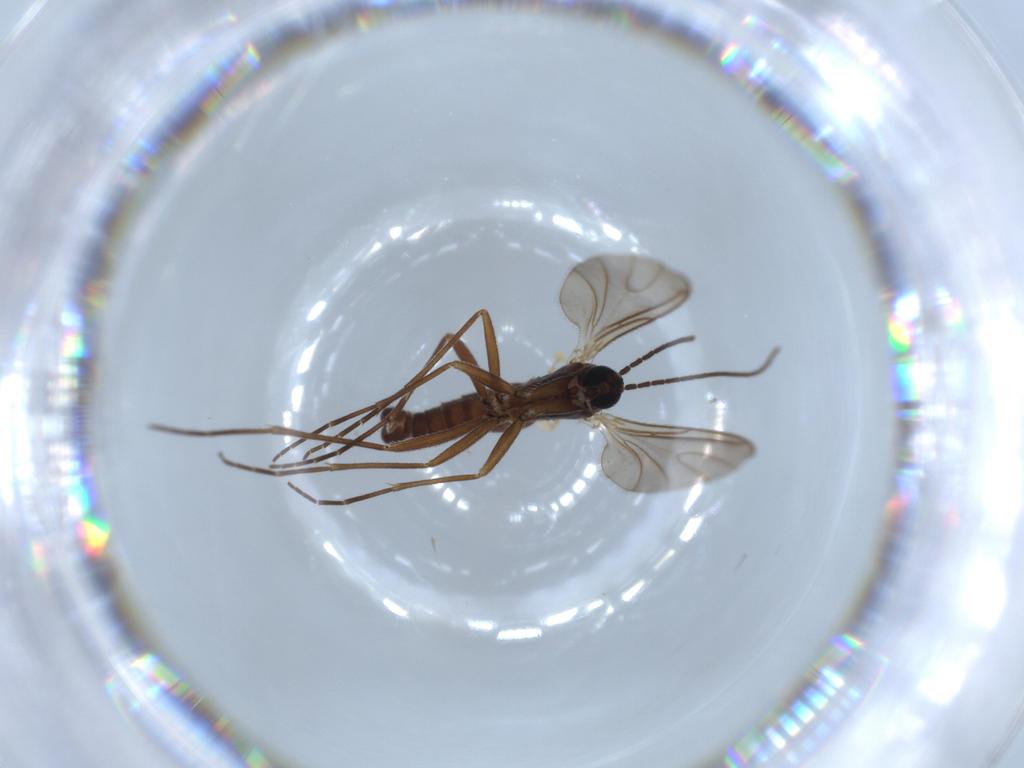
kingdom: Animalia
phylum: Arthropoda
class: Insecta
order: Diptera
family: Sciaridae
